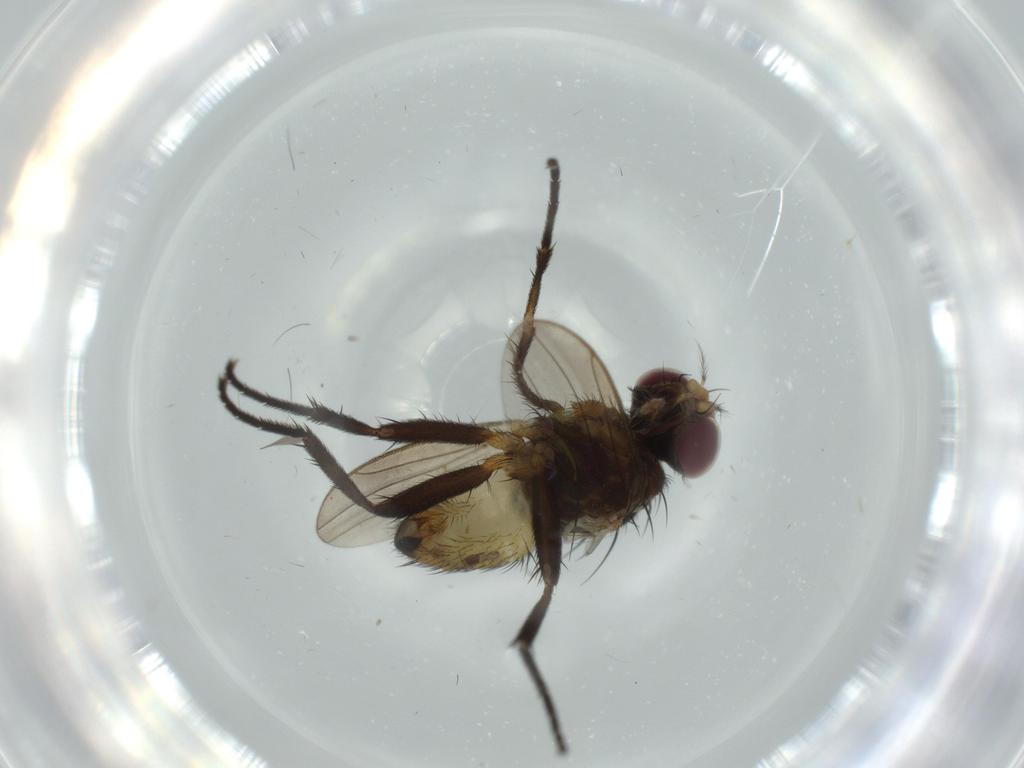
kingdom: Animalia
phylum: Arthropoda
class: Insecta
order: Diptera
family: Anthomyiidae
